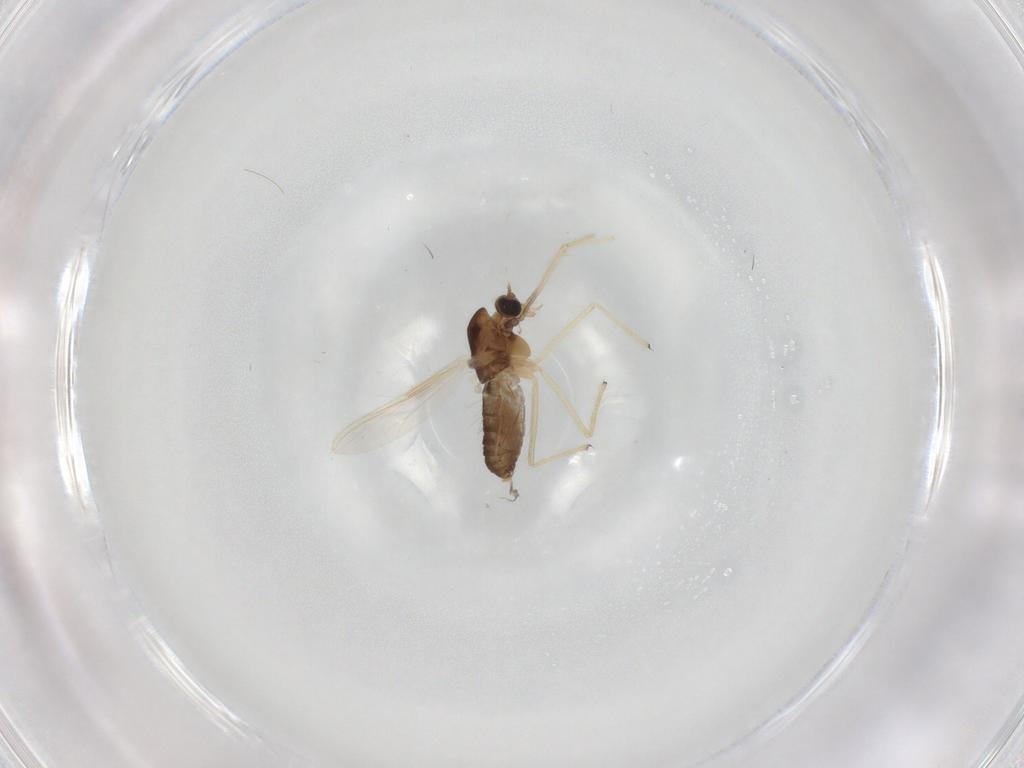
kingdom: Animalia
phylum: Arthropoda
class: Insecta
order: Diptera
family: Chironomidae
